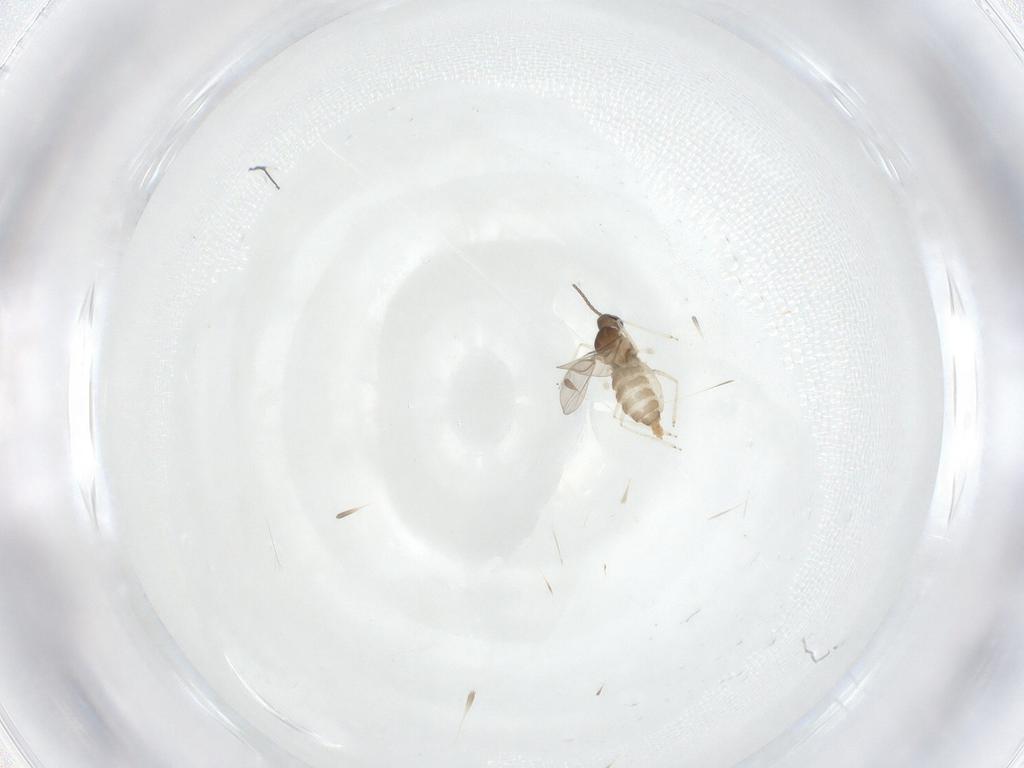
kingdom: Animalia
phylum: Arthropoda
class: Insecta
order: Diptera
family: Cecidomyiidae
